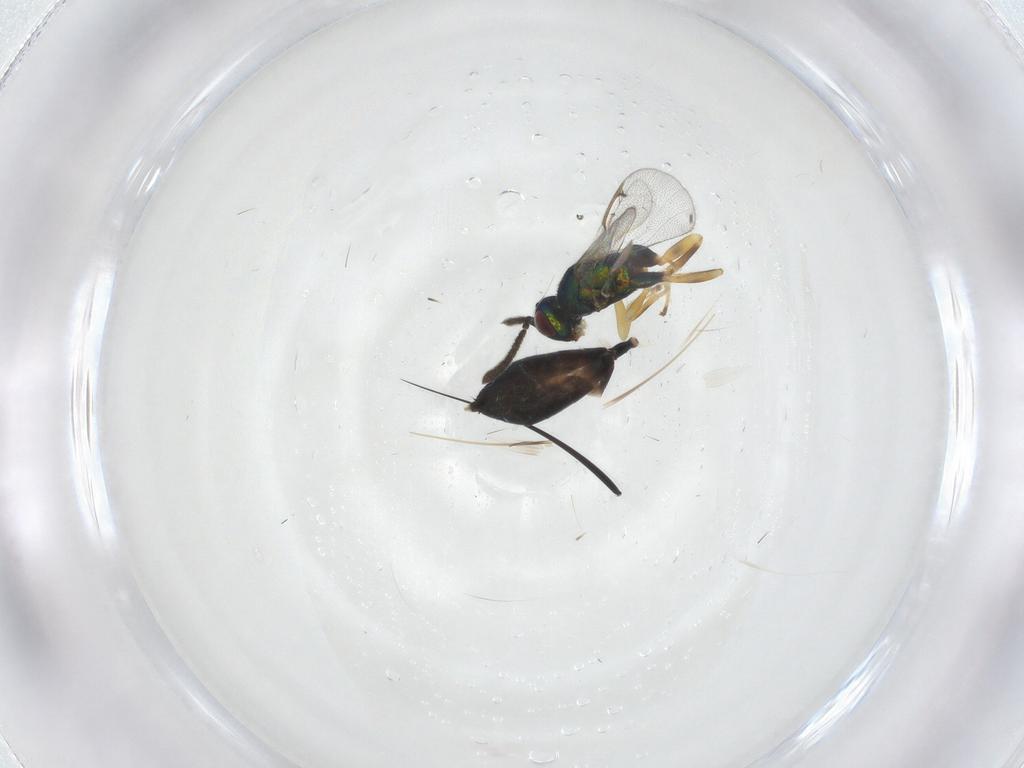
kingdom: Animalia
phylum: Arthropoda
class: Insecta
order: Hymenoptera
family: Torymidae
